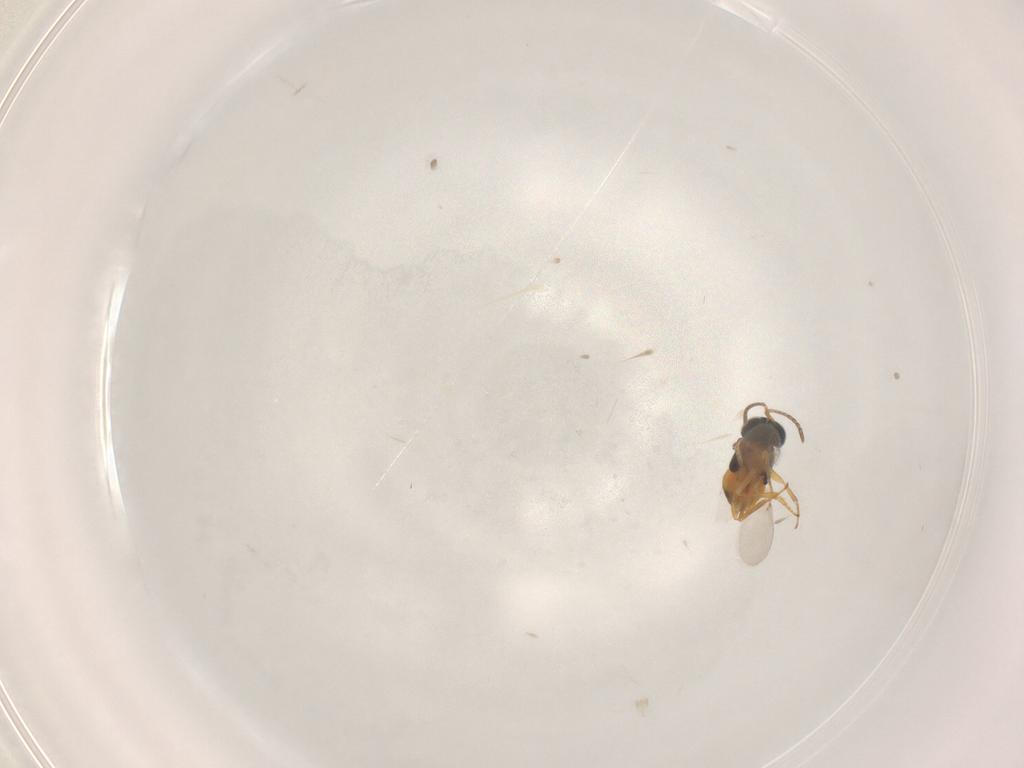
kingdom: Animalia
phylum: Arthropoda
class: Insecta
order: Hymenoptera
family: Encyrtidae
